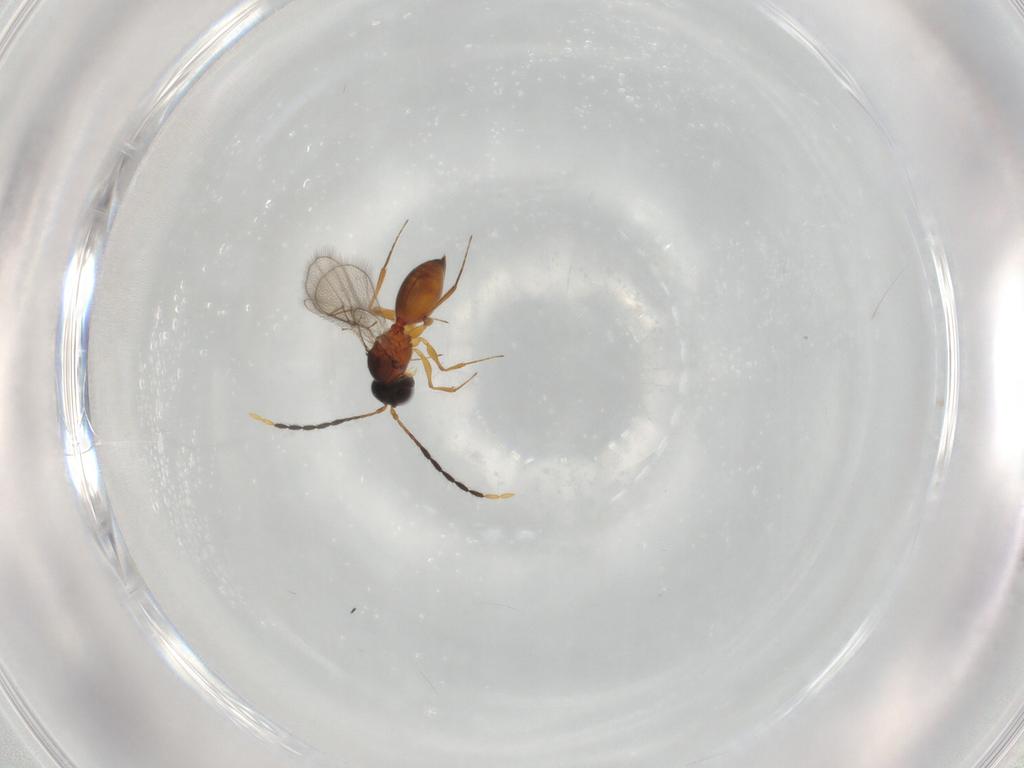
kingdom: Animalia
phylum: Arthropoda
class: Insecta
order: Hymenoptera
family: Figitidae
